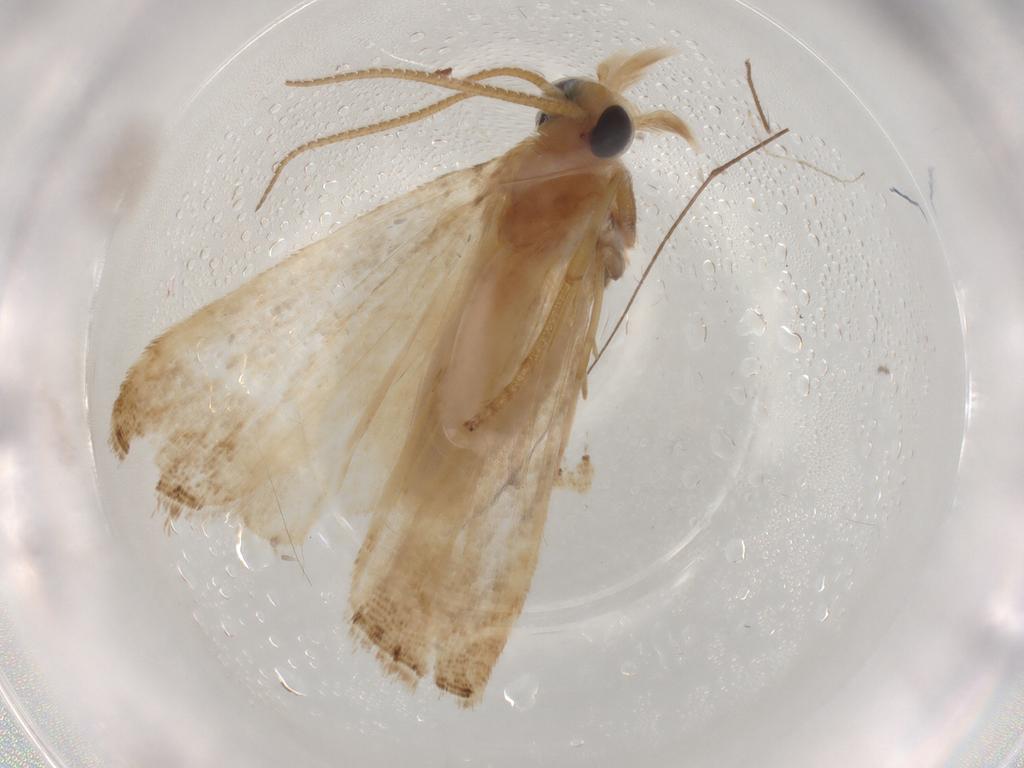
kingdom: Animalia
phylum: Arthropoda
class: Insecta
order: Lepidoptera
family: Pyralidae
